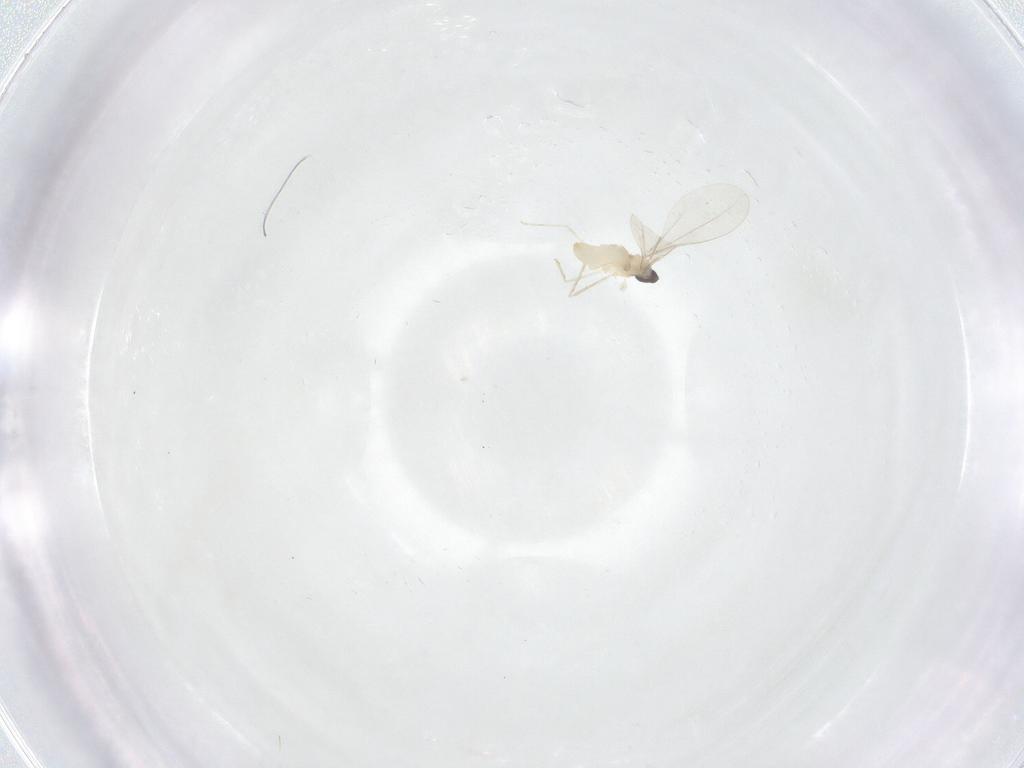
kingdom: Animalia
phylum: Arthropoda
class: Insecta
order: Diptera
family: Cecidomyiidae
